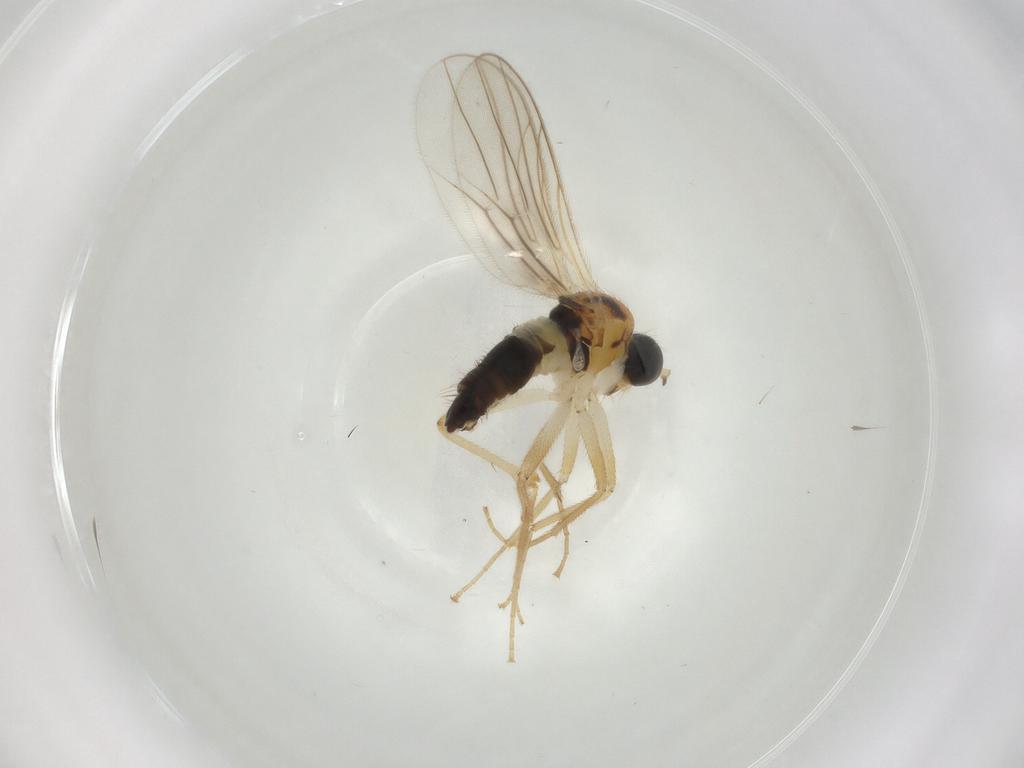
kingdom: Animalia
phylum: Arthropoda
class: Insecta
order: Diptera
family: Hybotidae
